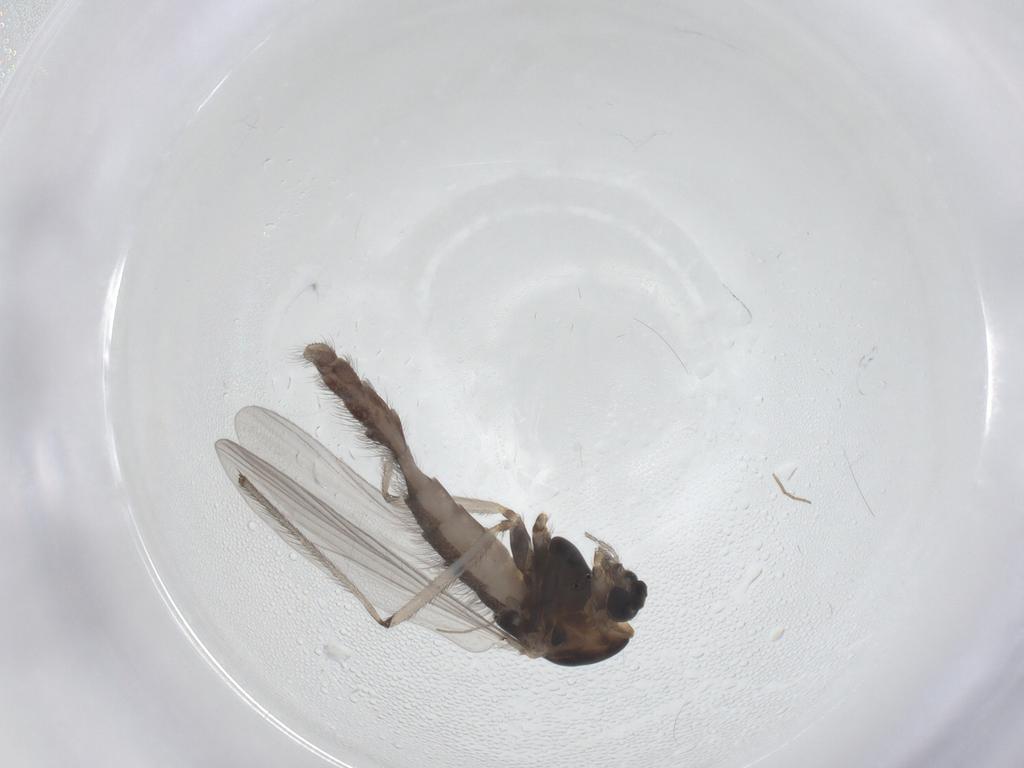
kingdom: Animalia
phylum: Arthropoda
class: Insecta
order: Diptera
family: Chironomidae
